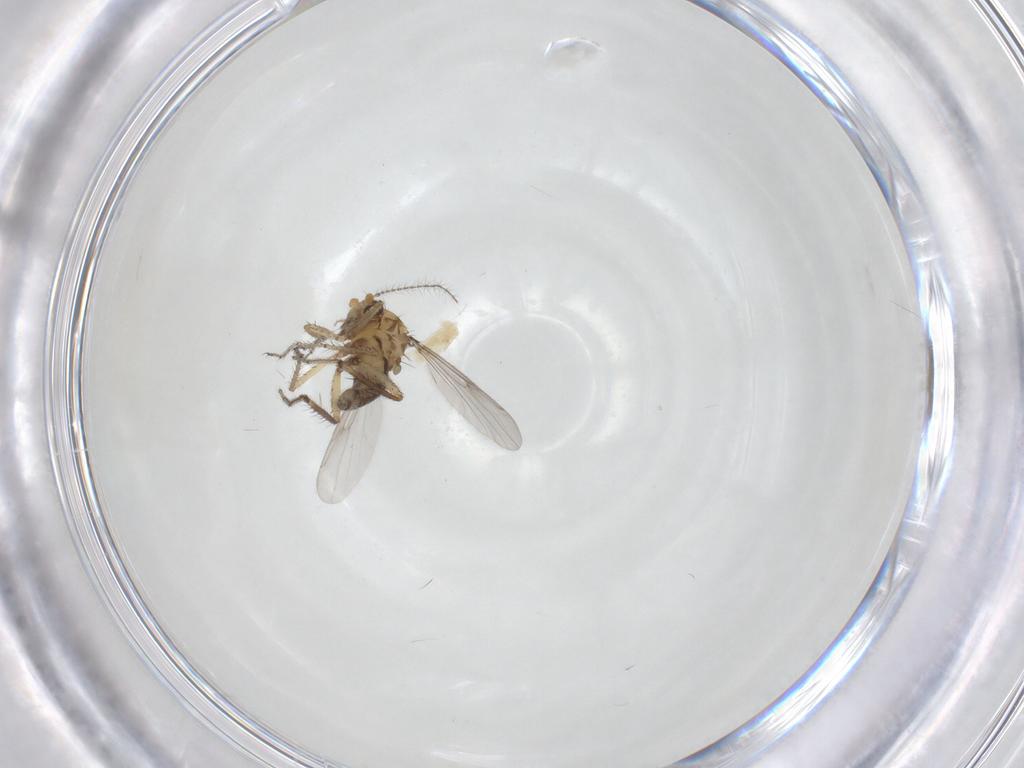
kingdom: Animalia
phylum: Arthropoda
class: Insecta
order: Diptera
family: Ceratopogonidae
